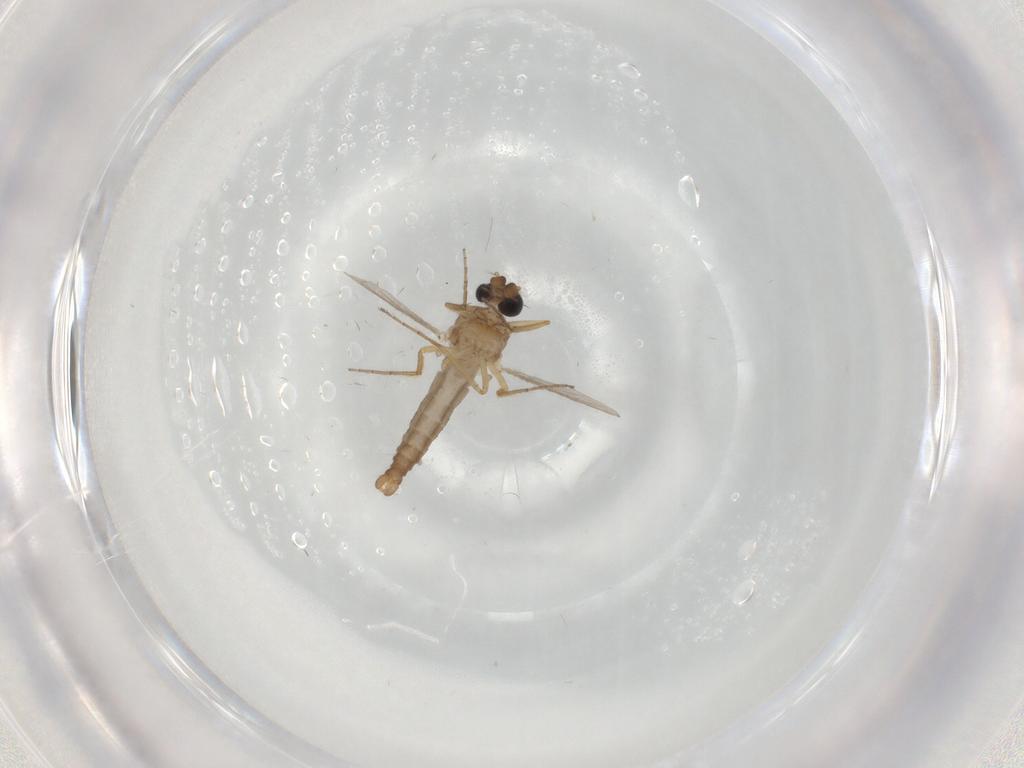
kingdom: Animalia
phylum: Arthropoda
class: Insecta
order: Diptera
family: Ceratopogonidae
